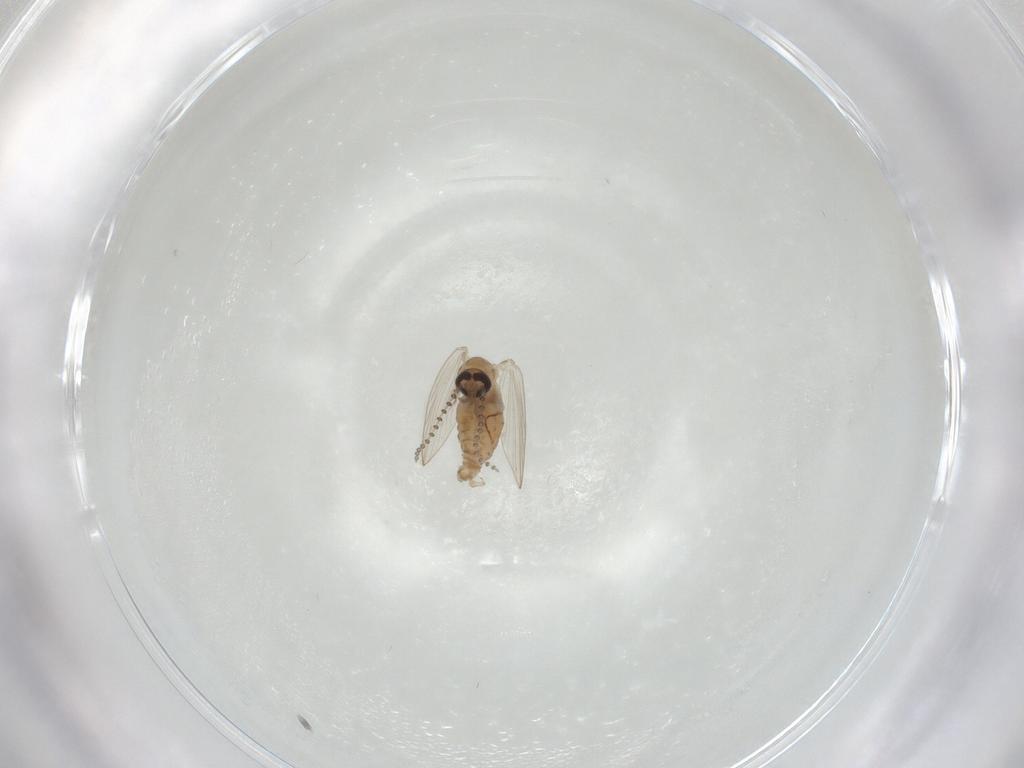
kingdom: Animalia
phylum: Arthropoda
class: Insecta
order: Diptera
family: Psychodidae
